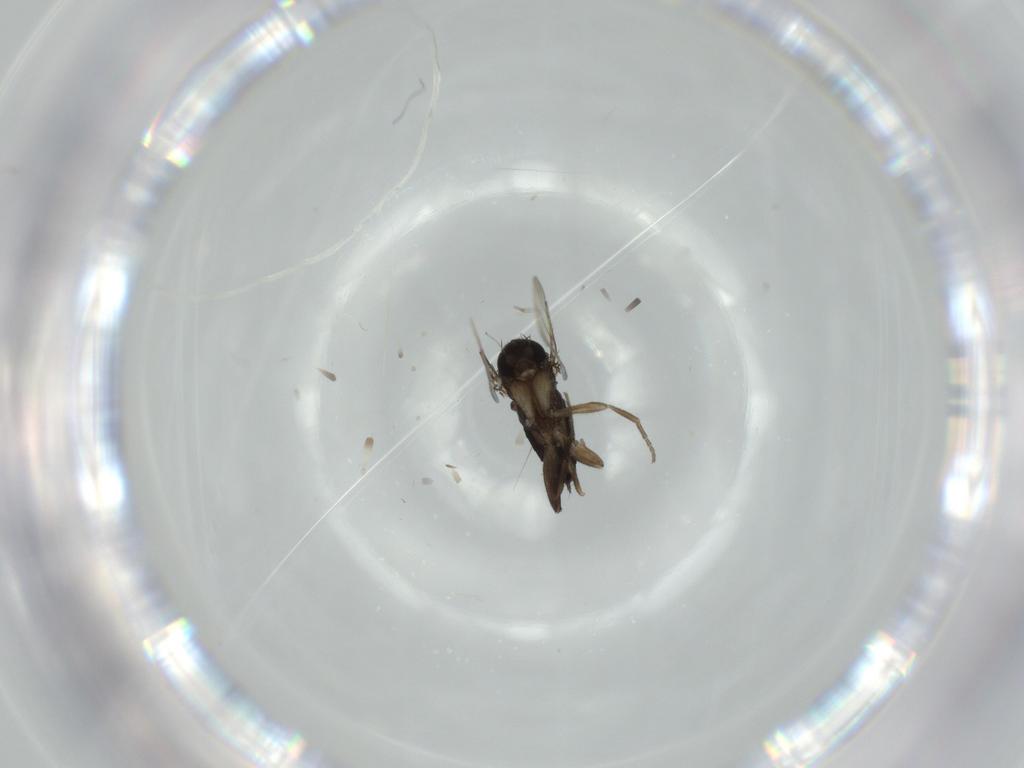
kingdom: Animalia
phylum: Arthropoda
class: Insecta
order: Diptera
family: Phoridae
